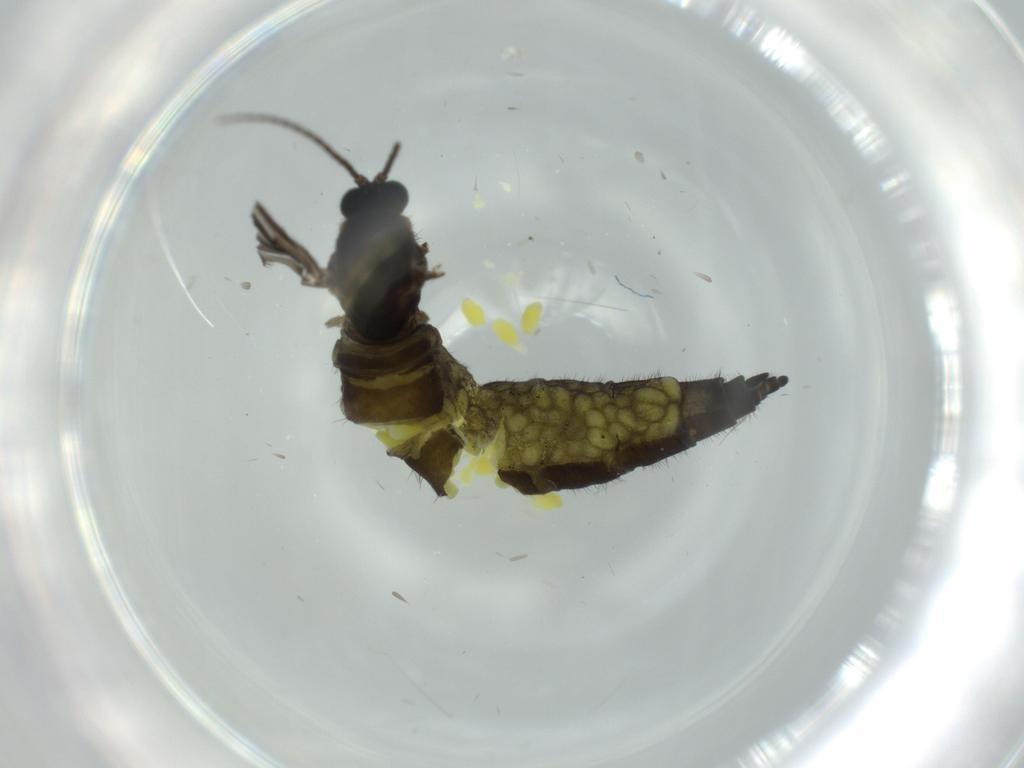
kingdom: Animalia
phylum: Arthropoda
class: Insecta
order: Diptera
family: Sciaridae
